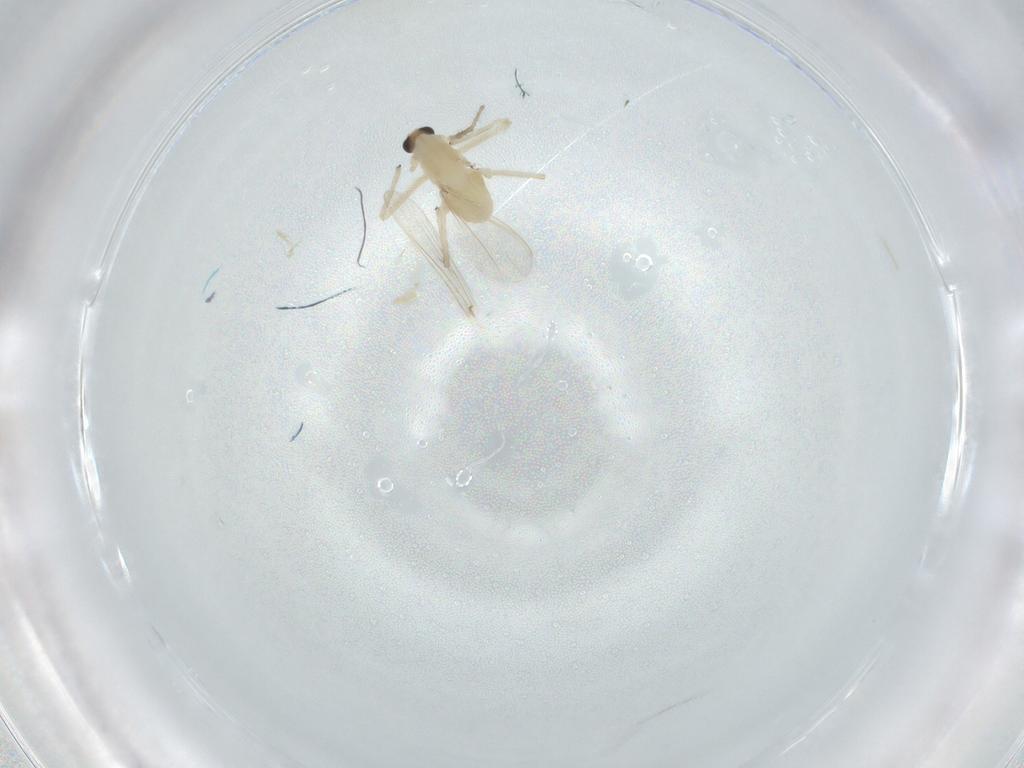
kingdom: Animalia
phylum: Arthropoda
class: Insecta
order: Diptera
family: Chironomidae
